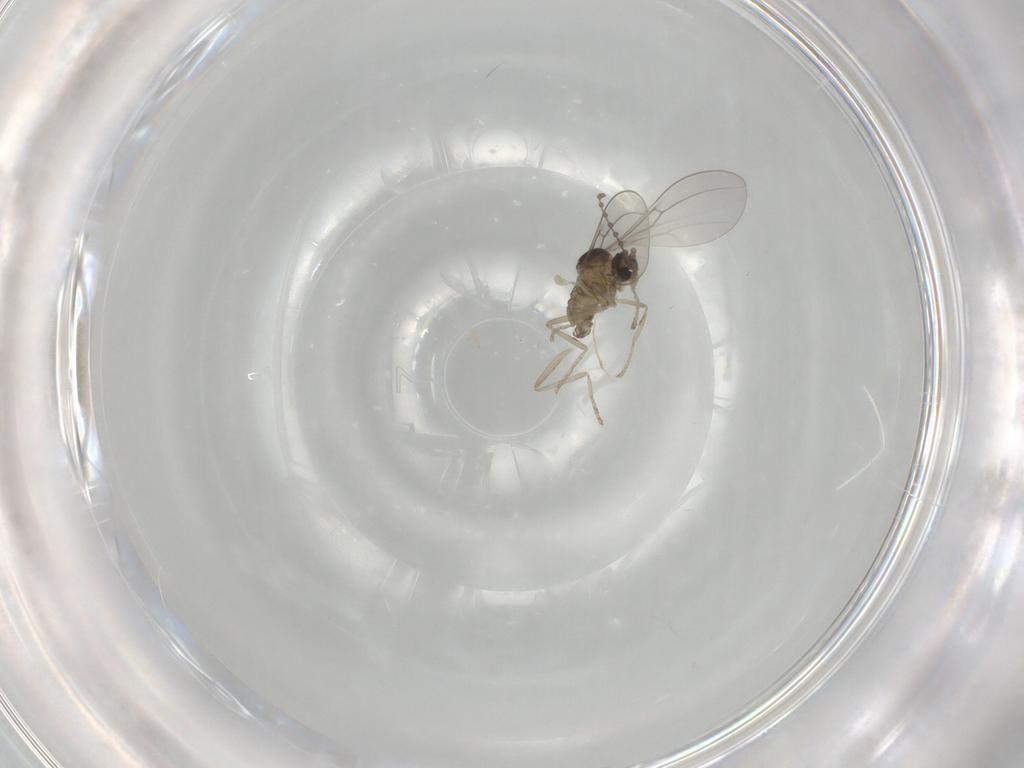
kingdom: Animalia
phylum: Arthropoda
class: Insecta
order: Diptera
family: Cecidomyiidae
